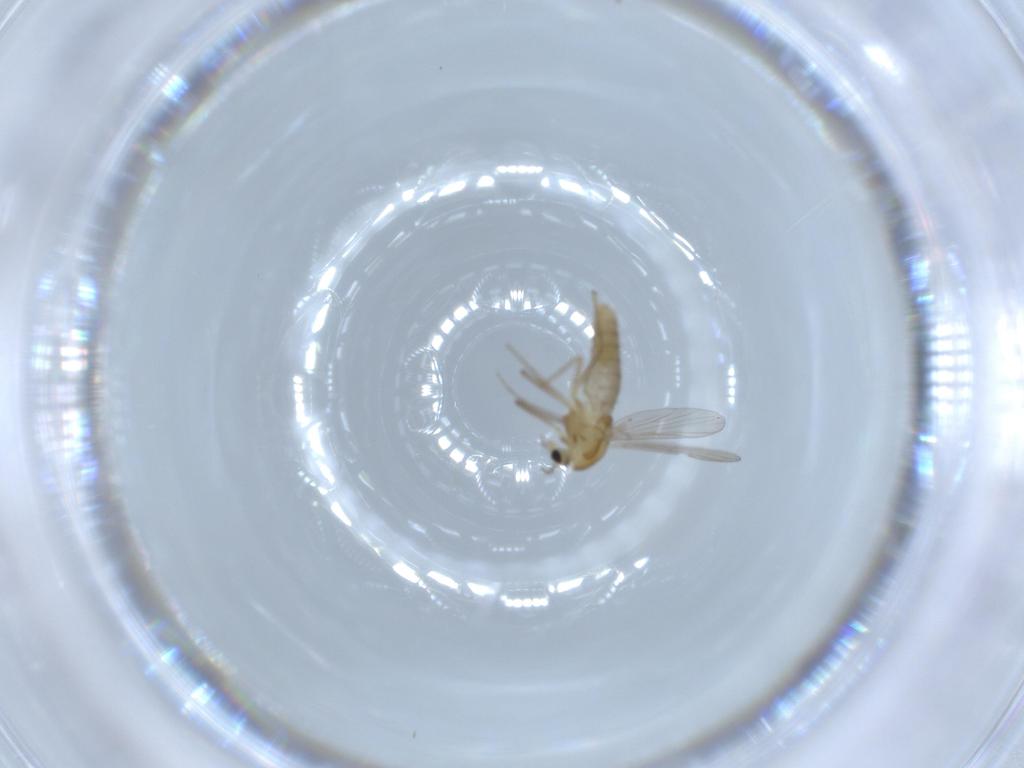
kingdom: Animalia
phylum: Arthropoda
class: Insecta
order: Diptera
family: Chironomidae
